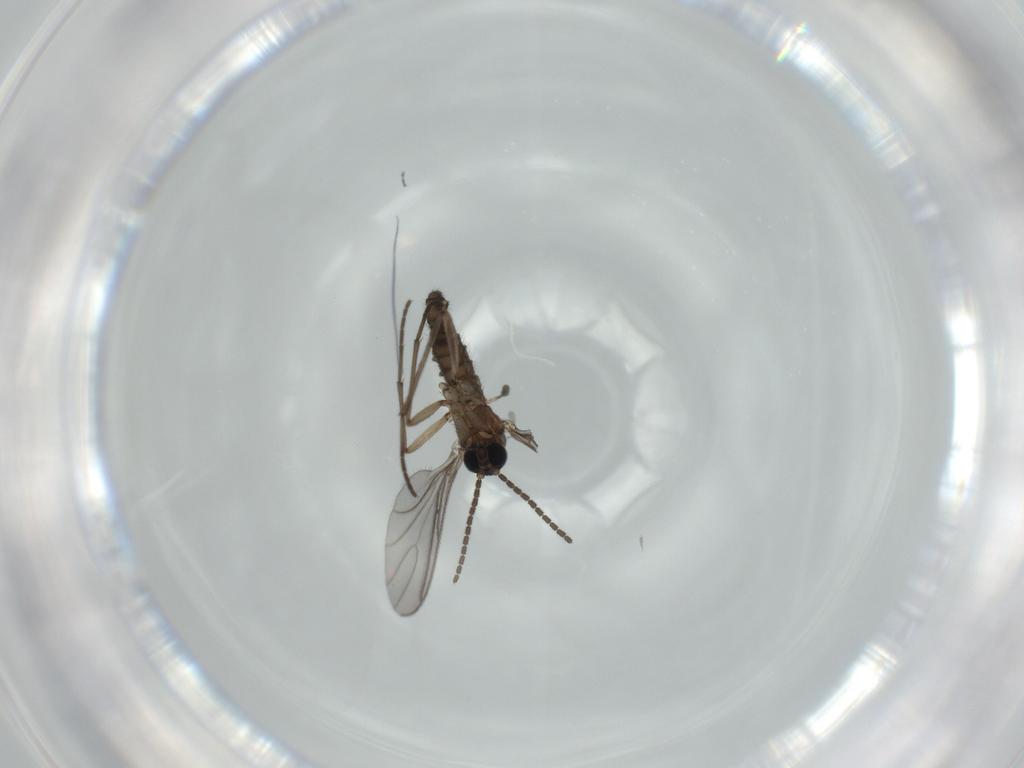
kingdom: Animalia
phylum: Arthropoda
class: Insecta
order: Diptera
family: Sciaridae
